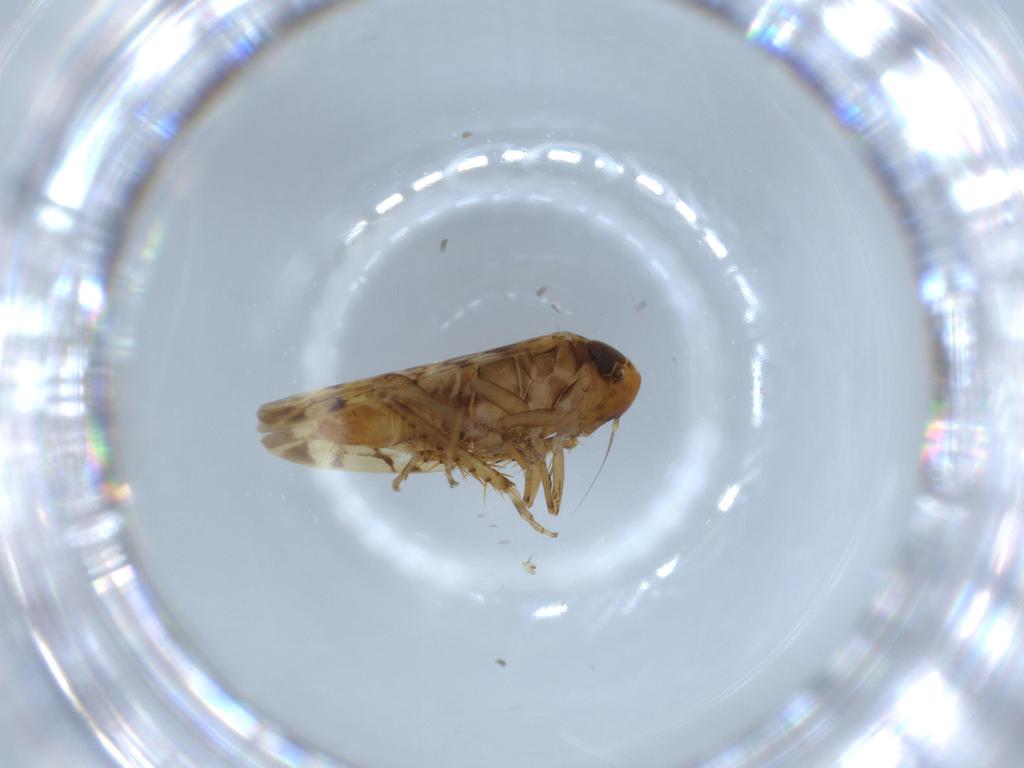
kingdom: Animalia
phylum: Arthropoda
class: Insecta
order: Hemiptera
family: Cicadellidae
